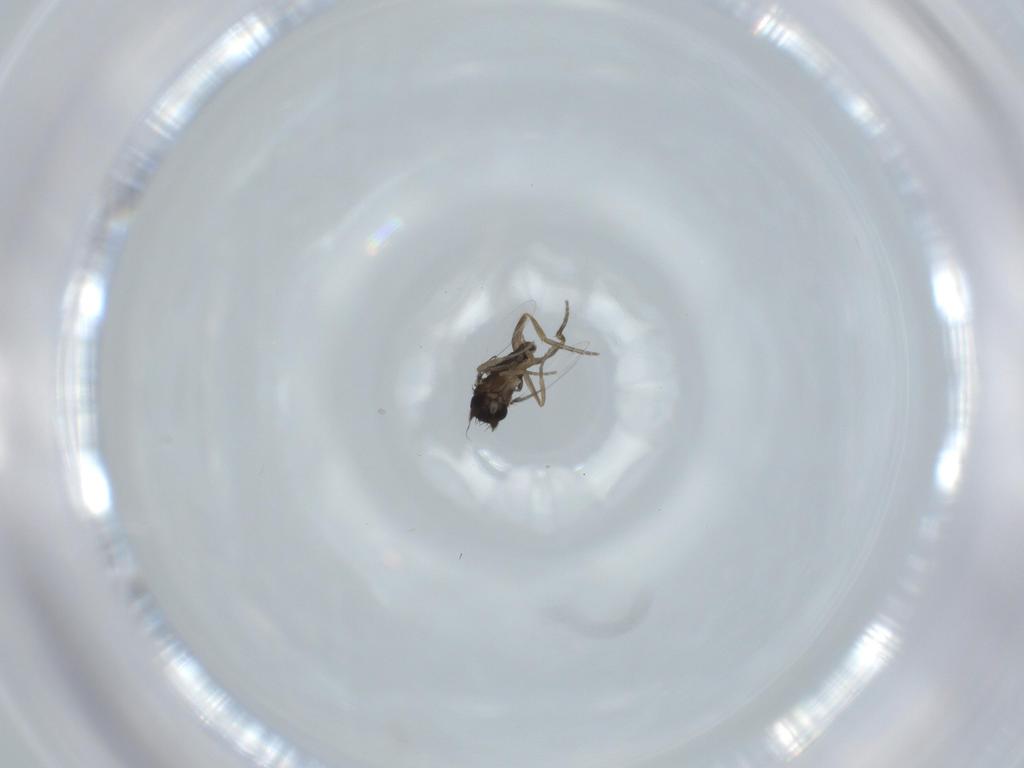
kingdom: Animalia
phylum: Arthropoda
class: Insecta
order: Diptera
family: Phoridae
